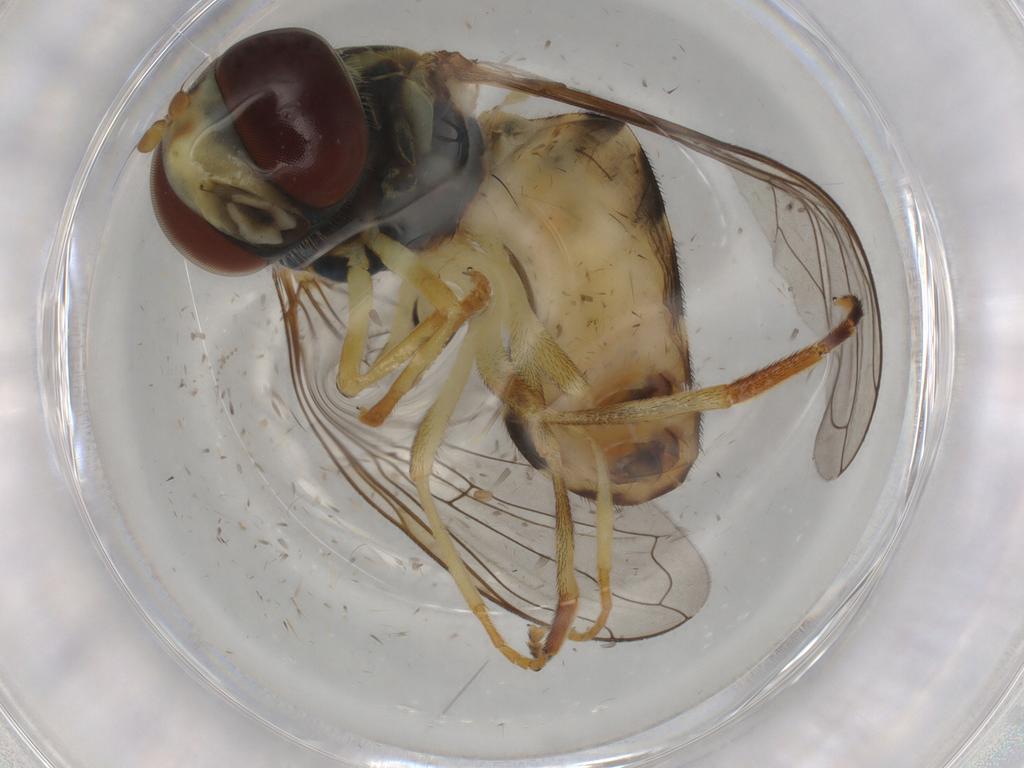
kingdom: Animalia
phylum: Arthropoda
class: Insecta
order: Diptera
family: Syrphidae
